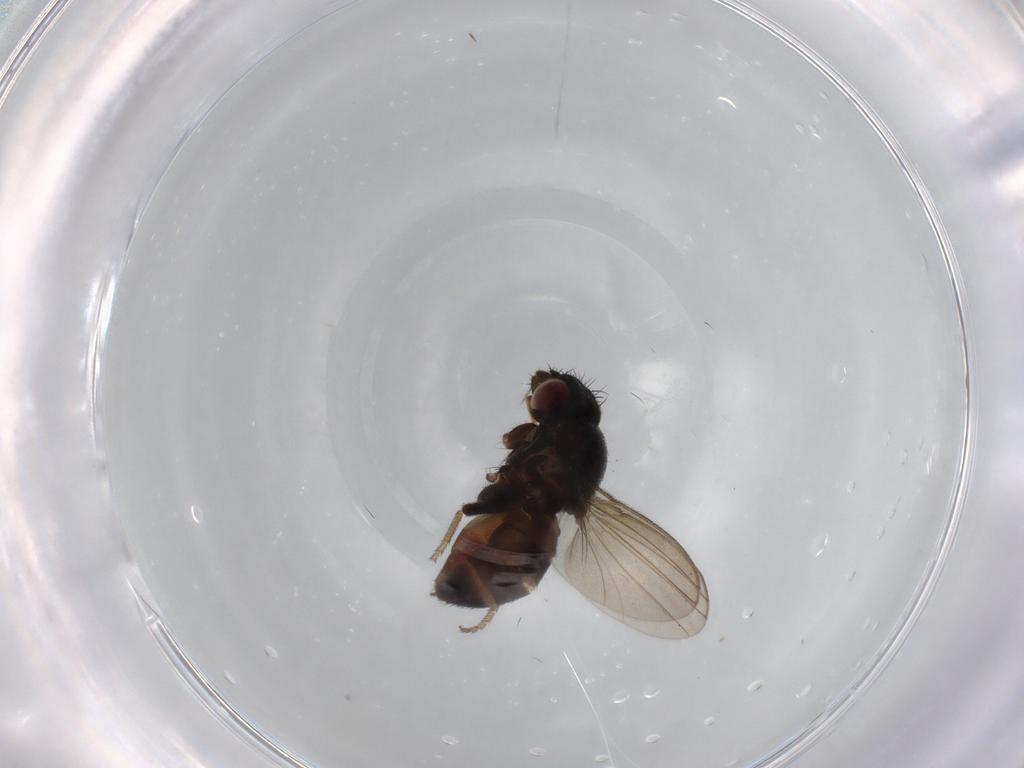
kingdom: Animalia
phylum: Arthropoda
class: Insecta
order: Diptera
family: Milichiidae
